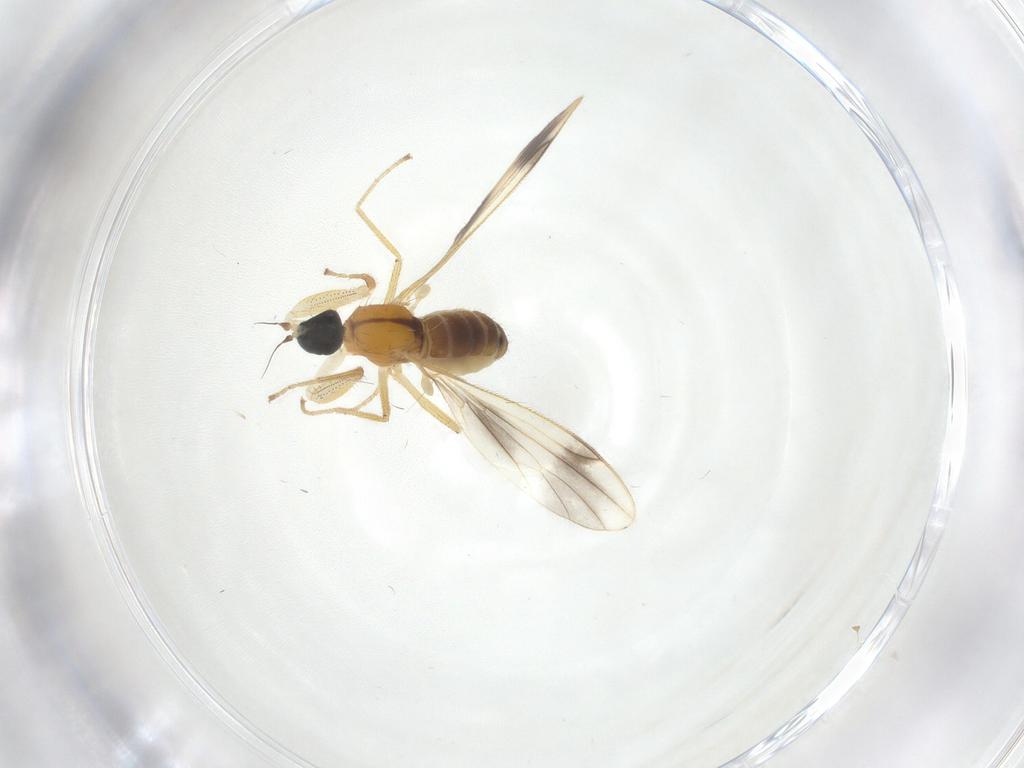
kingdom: Animalia
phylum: Arthropoda
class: Insecta
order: Diptera
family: Empididae
